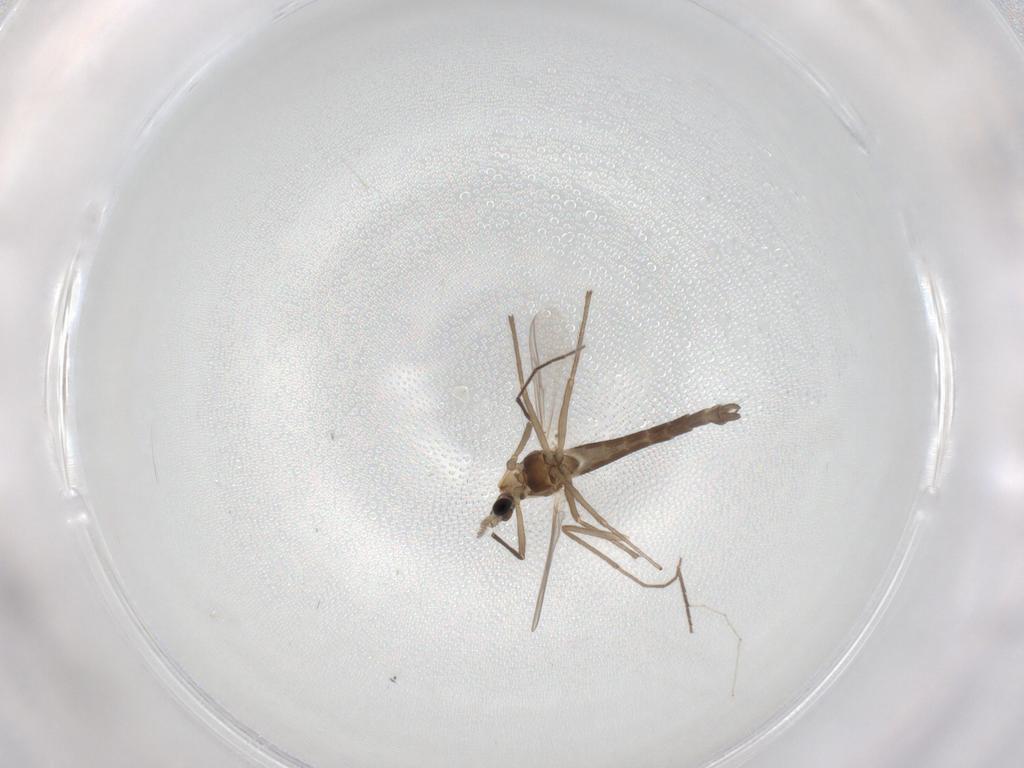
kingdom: Animalia
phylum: Arthropoda
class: Insecta
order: Diptera
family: Chironomidae
